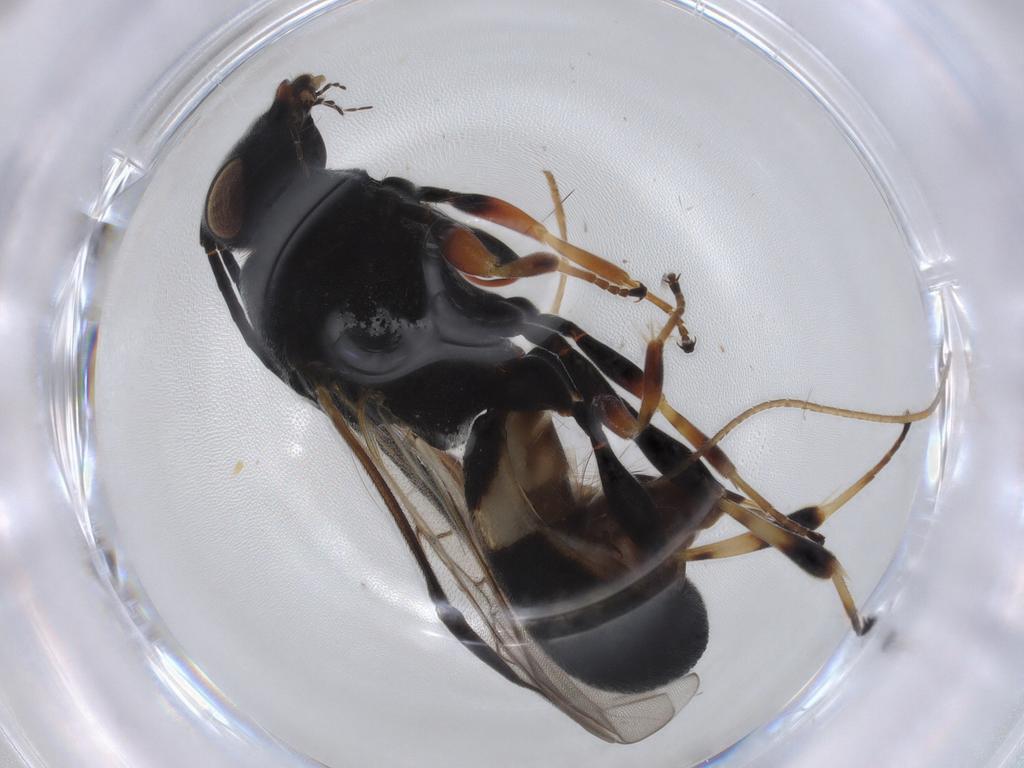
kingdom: Animalia
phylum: Arthropoda
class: Insecta
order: Hymenoptera
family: Braconidae
